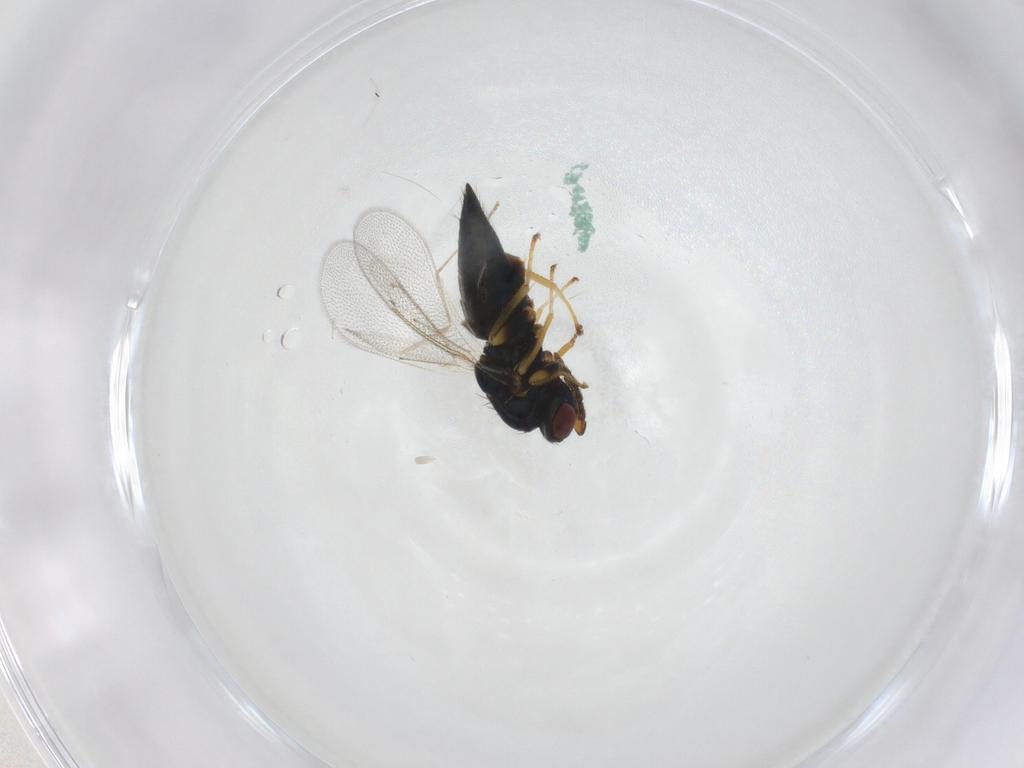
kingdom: Animalia
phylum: Arthropoda
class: Insecta
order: Hymenoptera
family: Eulophidae
